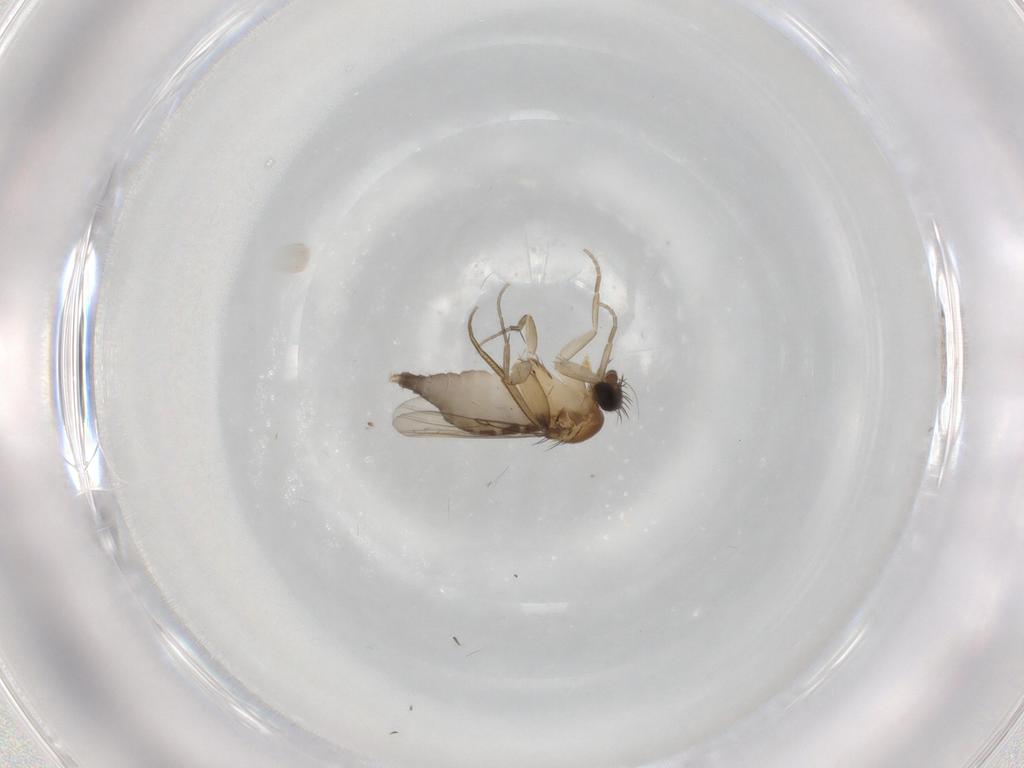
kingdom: Animalia
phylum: Arthropoda
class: Insecta
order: Diptera
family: Phoridae
